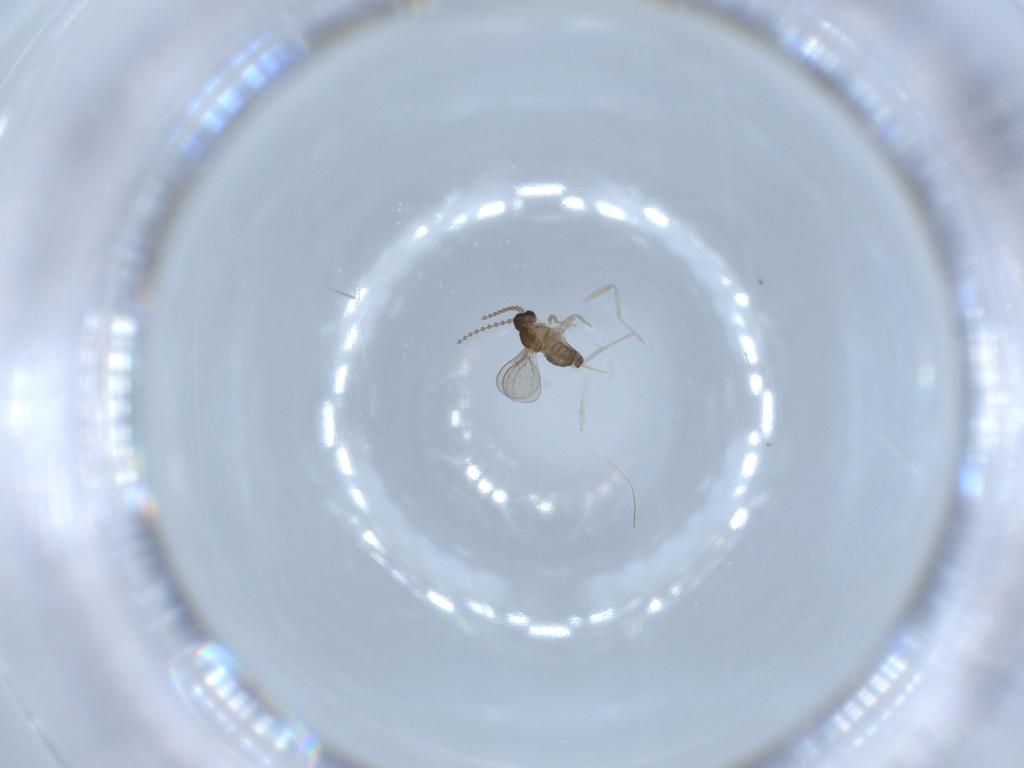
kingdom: Animalia
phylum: Arthropoda
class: Insecta
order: Diptera
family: Cecidomyiidae
